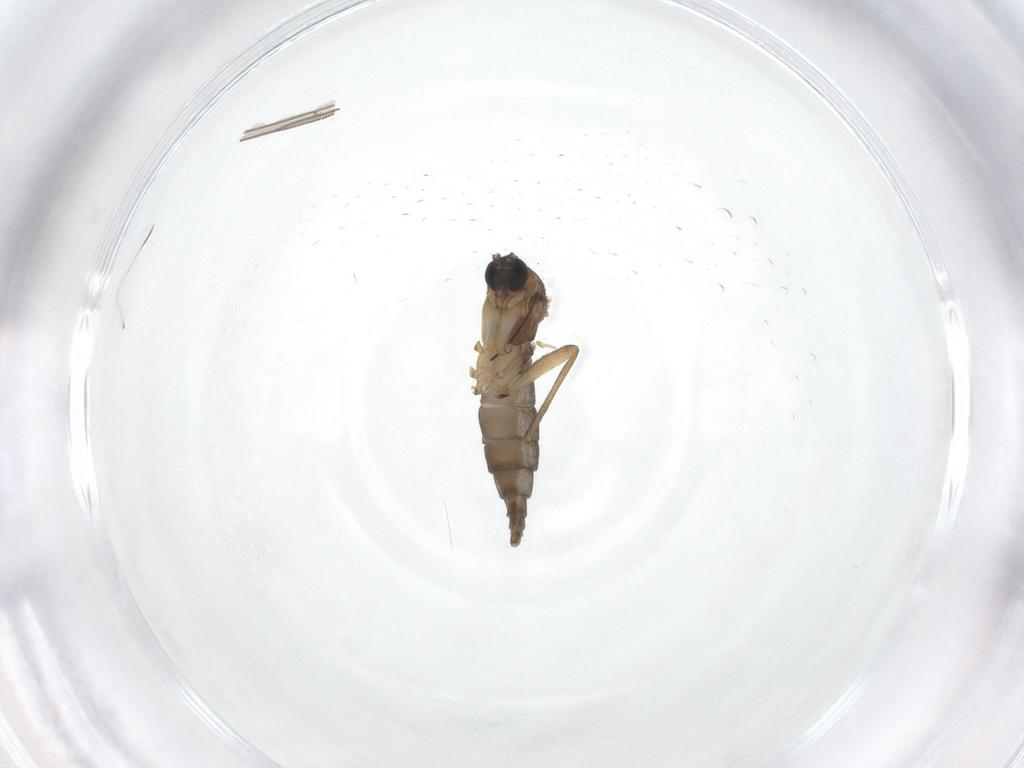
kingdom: Animalia
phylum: Arthropoda
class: Insecta
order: Diptera
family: Sciaridae
